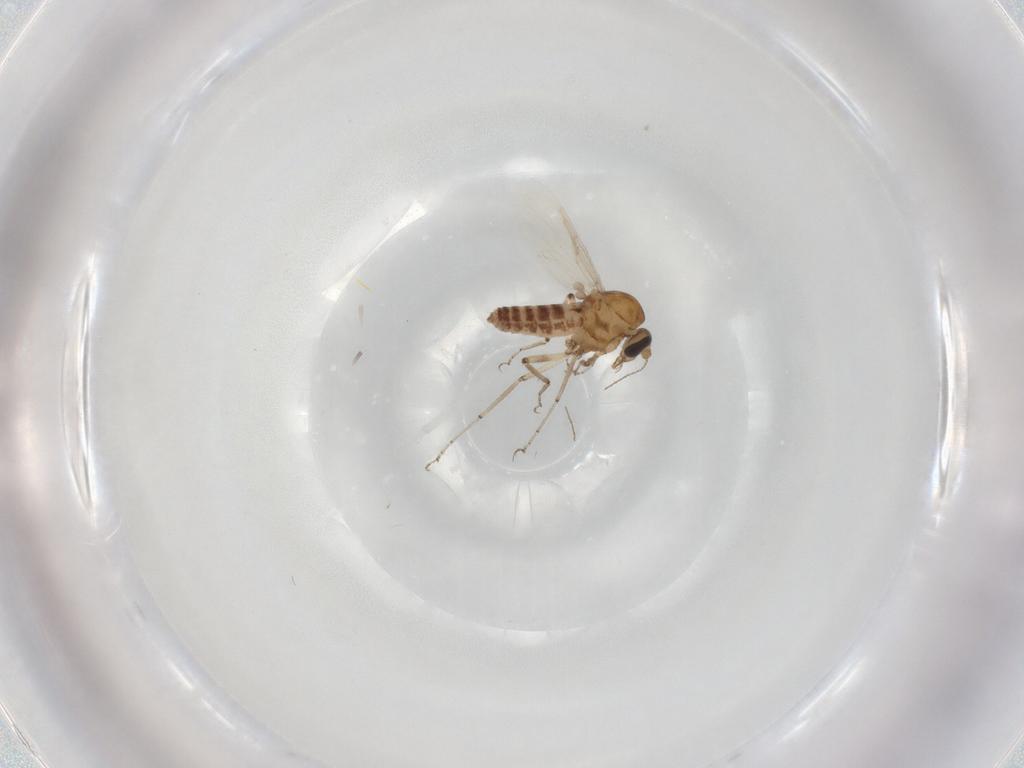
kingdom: Animalia
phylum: Arthropoda
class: Insecta
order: Diptera
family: Ceratopogonidae
